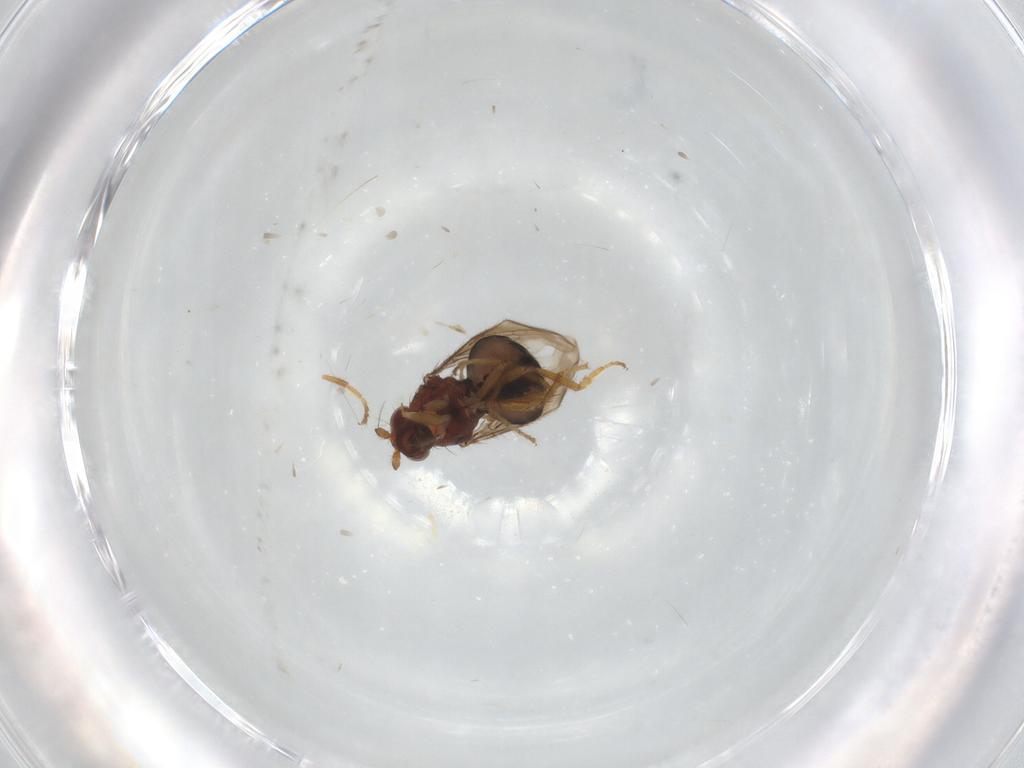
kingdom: Animalia
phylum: Arthropoda
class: Insecta
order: Diptera
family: Sphaeroceridae
